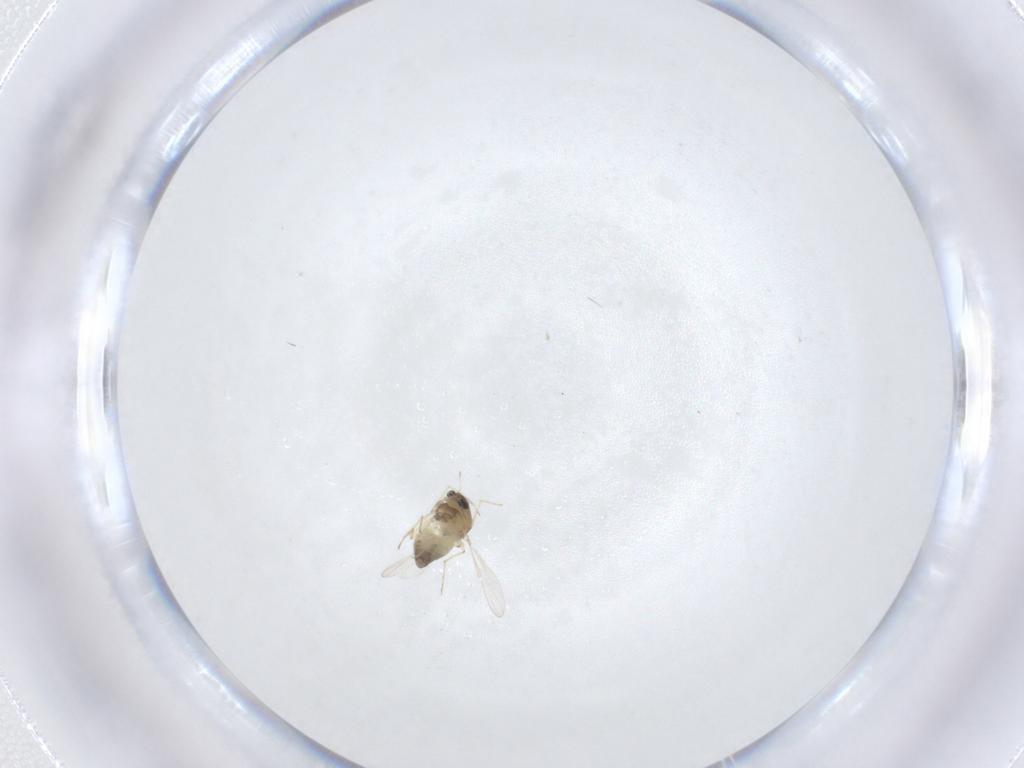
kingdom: Animalia
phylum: Arthropoda
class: Insecta
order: Diptera
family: Chironomidae
